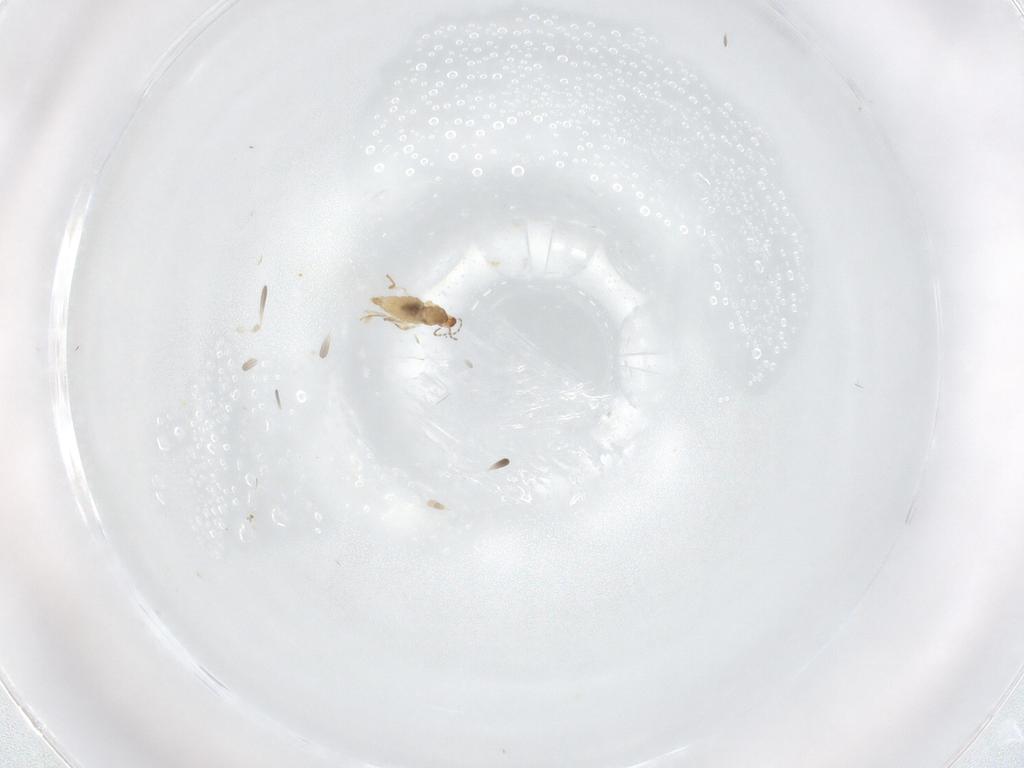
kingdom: Animalia
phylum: Arthropoda
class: Insecta
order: Diptera
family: Cecidomyiidae
